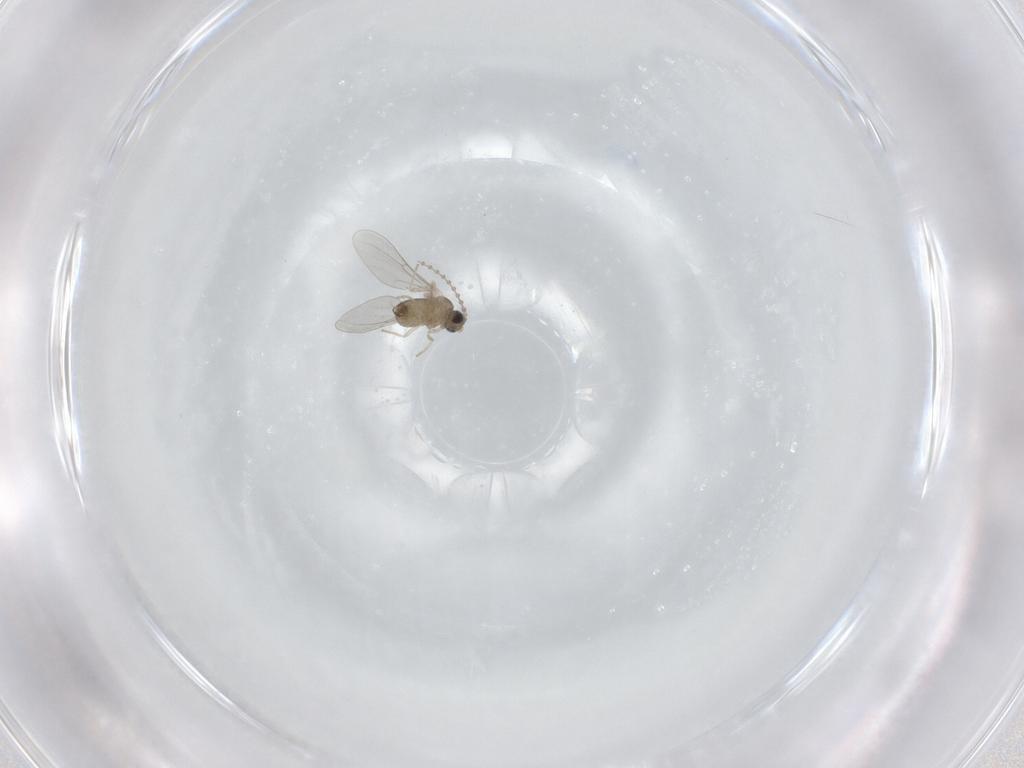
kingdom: Animalia
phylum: Arthropoda
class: Insecta
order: Diptera
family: Cecidomyiidae
